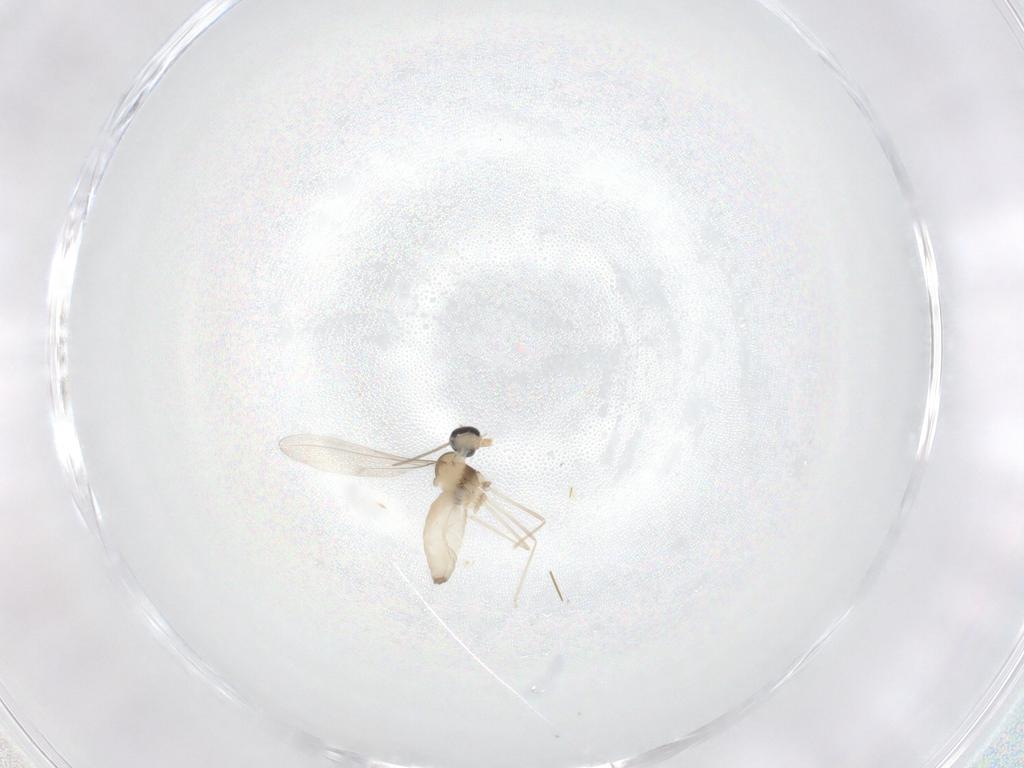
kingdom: Animalia
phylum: Arthropoda
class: Insecta
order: Diptera
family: Cecidomyiidae
